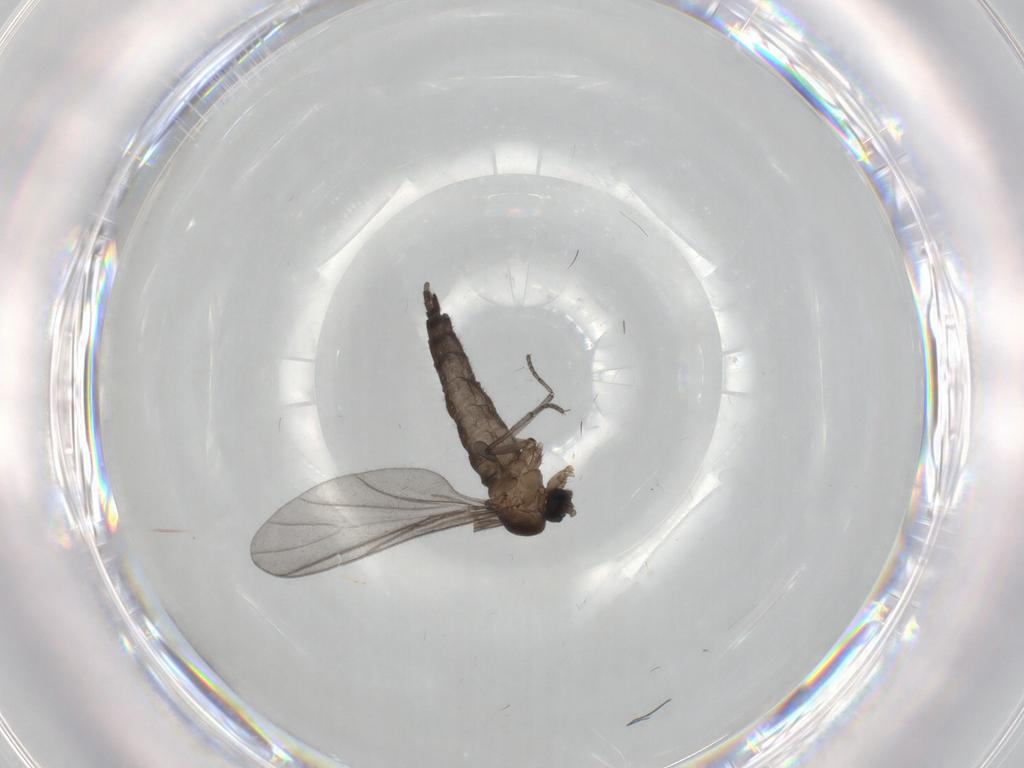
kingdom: Animalia
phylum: Arthropoda
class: Insecta
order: Diptera
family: Sciaridae
